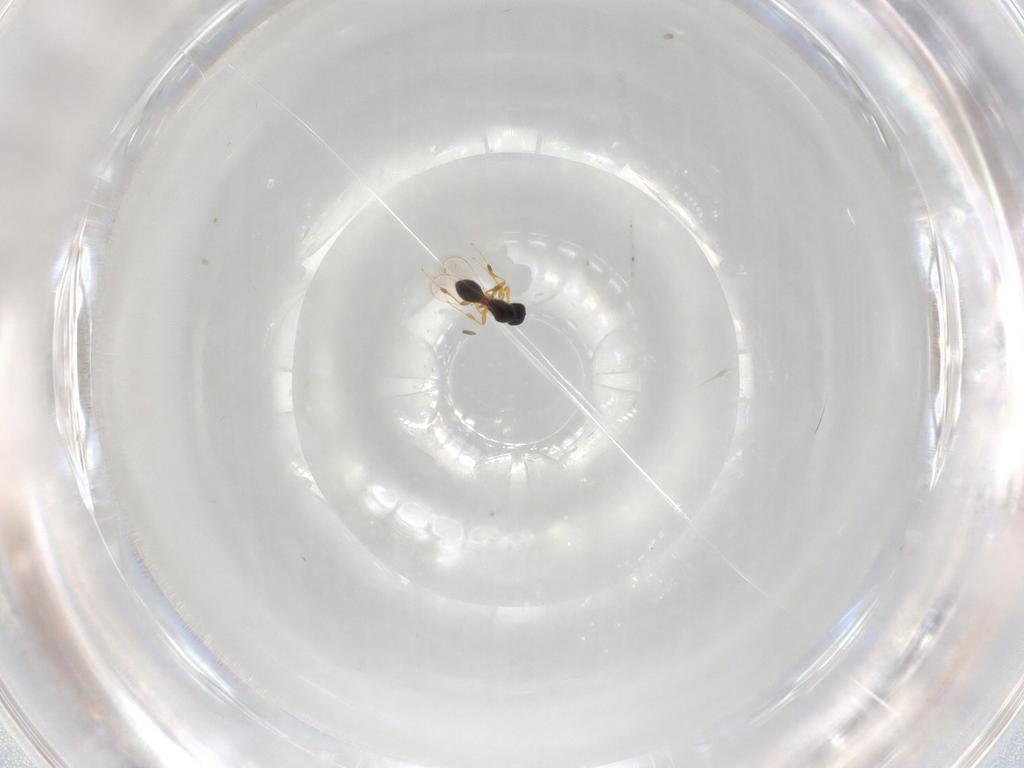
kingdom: Animalia
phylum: Arthropoda
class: Insecta
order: Hymenoptera
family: Platygastridae
